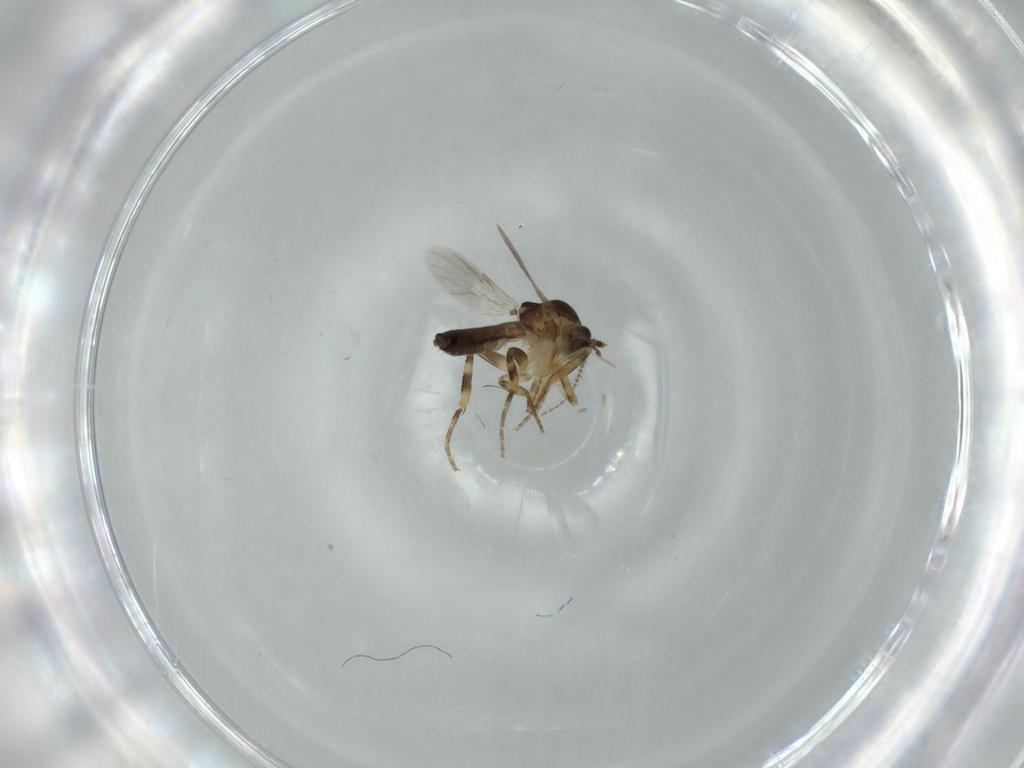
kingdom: Animalia
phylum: Arthropoda
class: Insecta
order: Diptera
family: Ceratopogonidae
